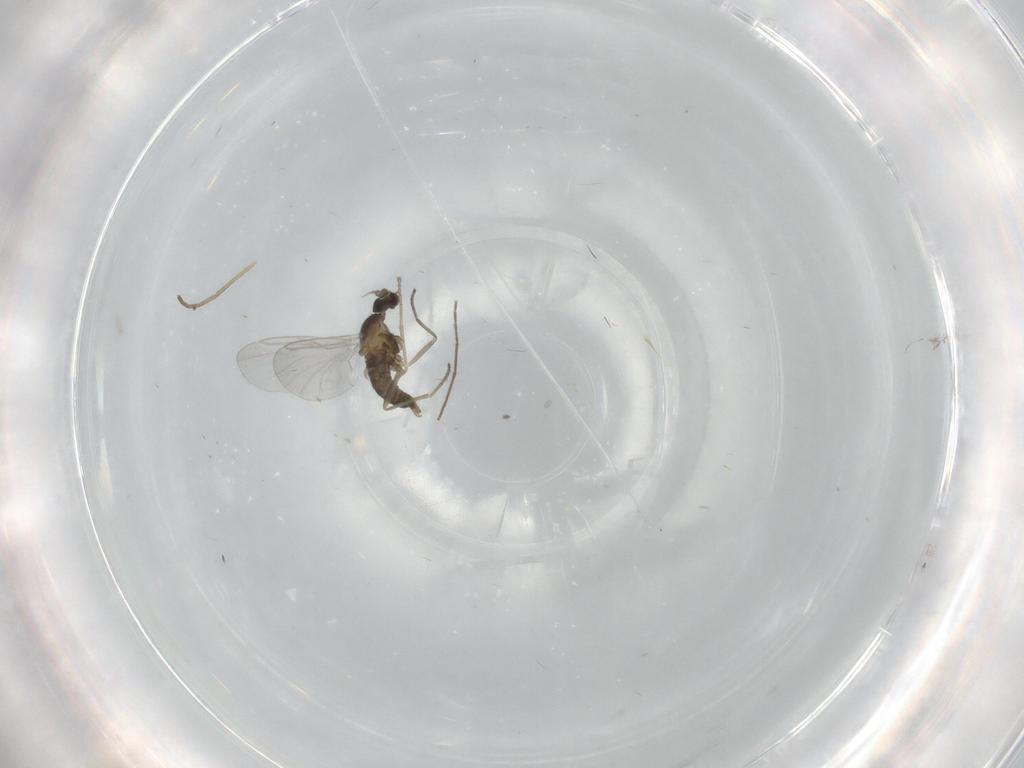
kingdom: Animalia
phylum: Arthropoda
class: Insecta
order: Diptera
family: Cecidomyiidae
